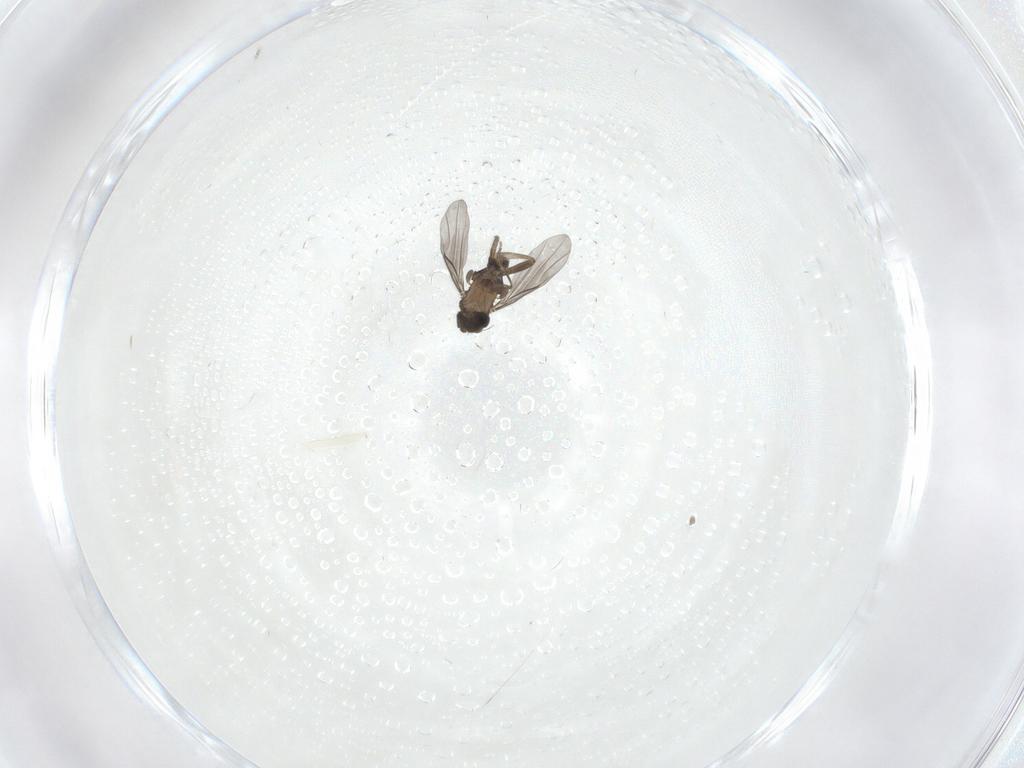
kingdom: Animalia
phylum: Arthropoda
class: Insecta
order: Diptera
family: Phoridae
